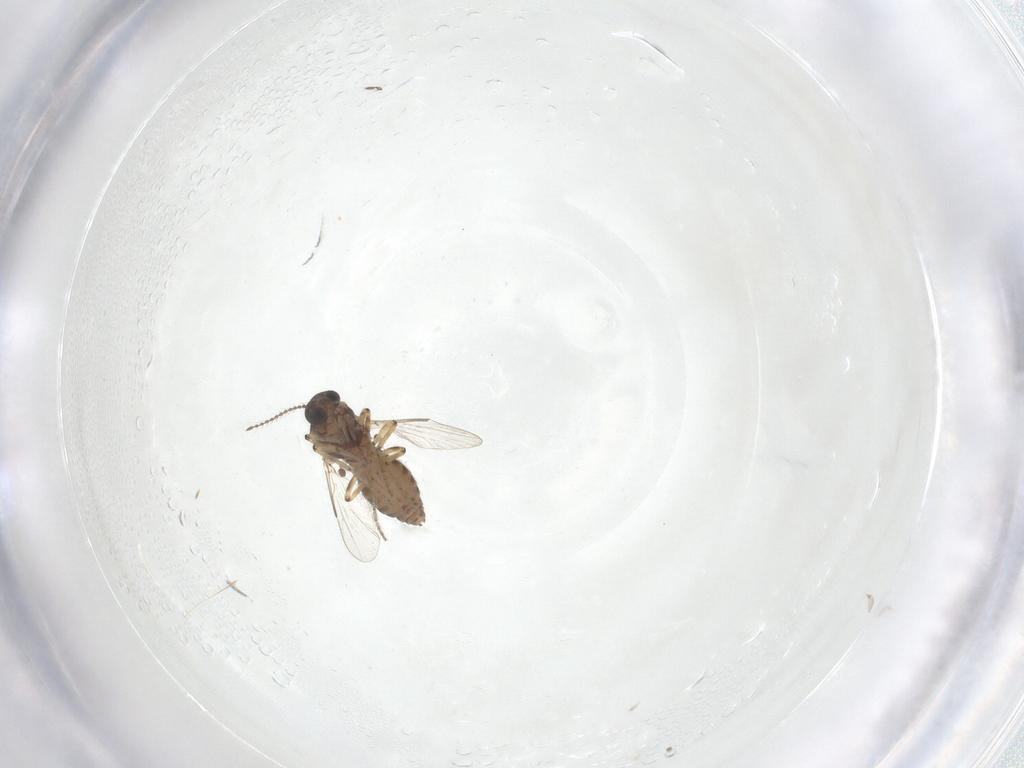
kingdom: Animalia
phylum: Arthropoda
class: Insecta
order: Diptera
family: Chironomidae
